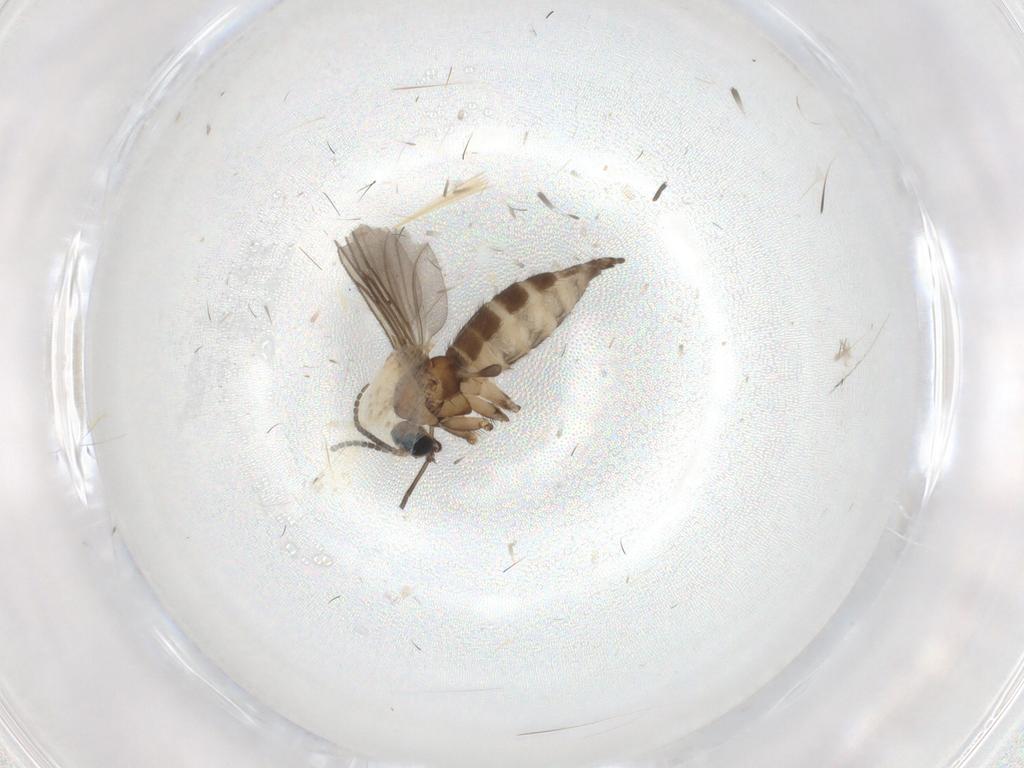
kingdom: Animalia
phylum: Arthropoda
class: Insecta
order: Diptera
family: Sciaridae
